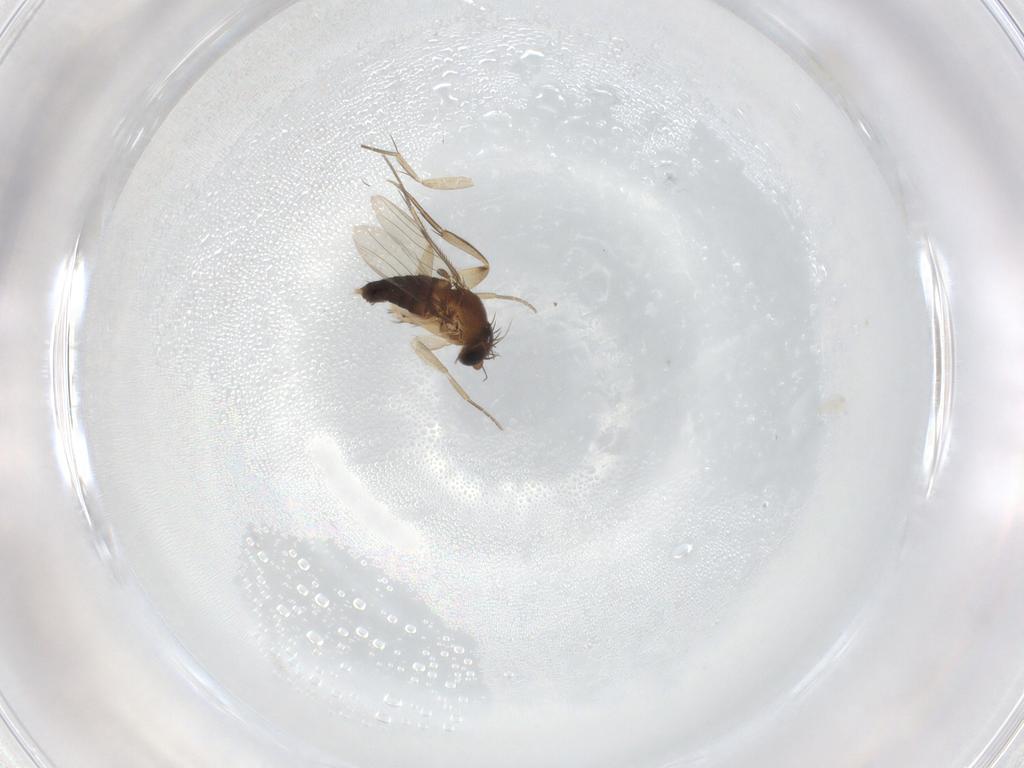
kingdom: Animalia
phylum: Arthropoda
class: Insecta
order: Diptera
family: Phoridae
